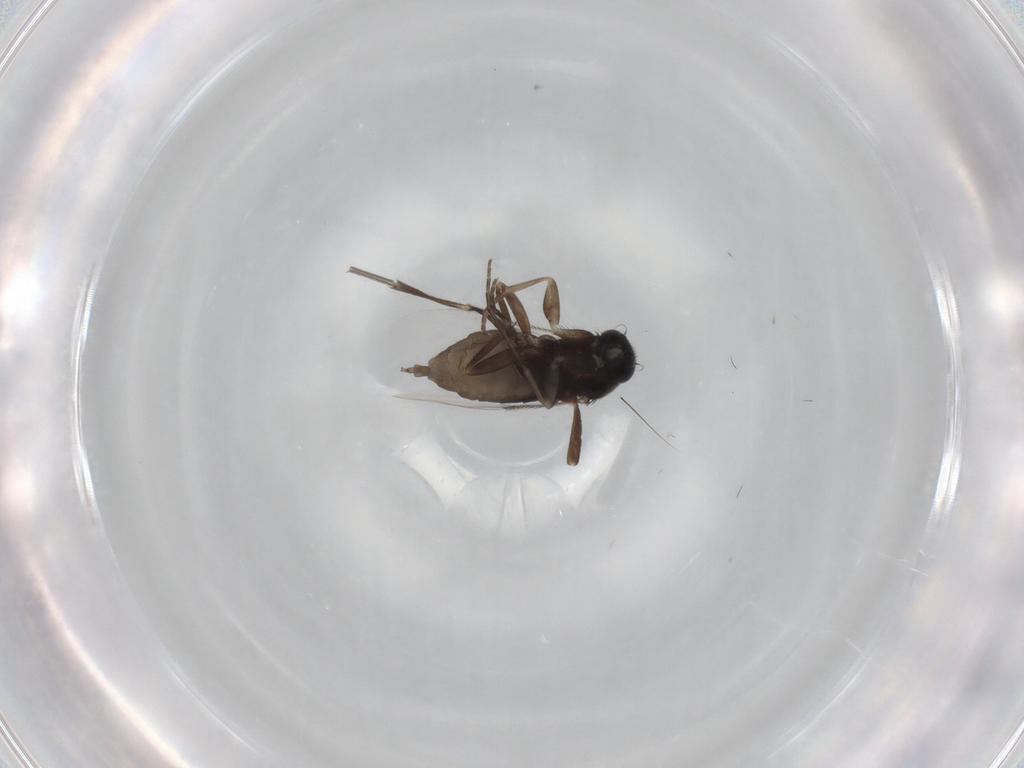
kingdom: Animalia
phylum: Arthropoda
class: Insecta
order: Diptera
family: Phoridae
